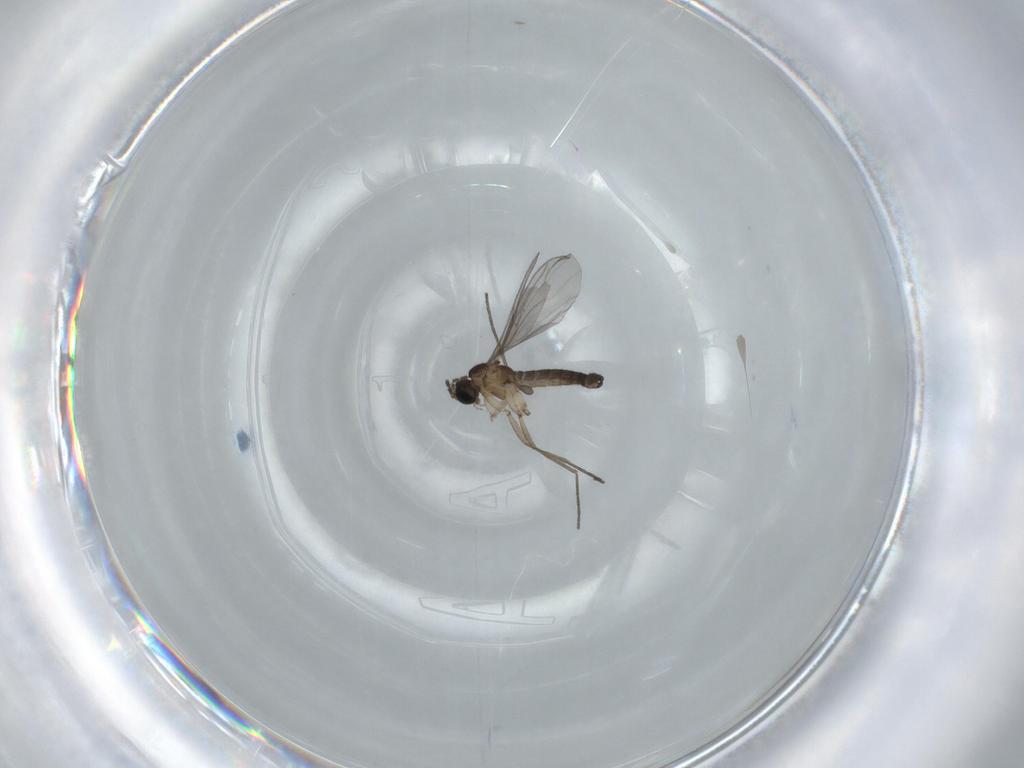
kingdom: Animalia
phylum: Arthropoda
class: Insecta
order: Diptera
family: Sciaridae
